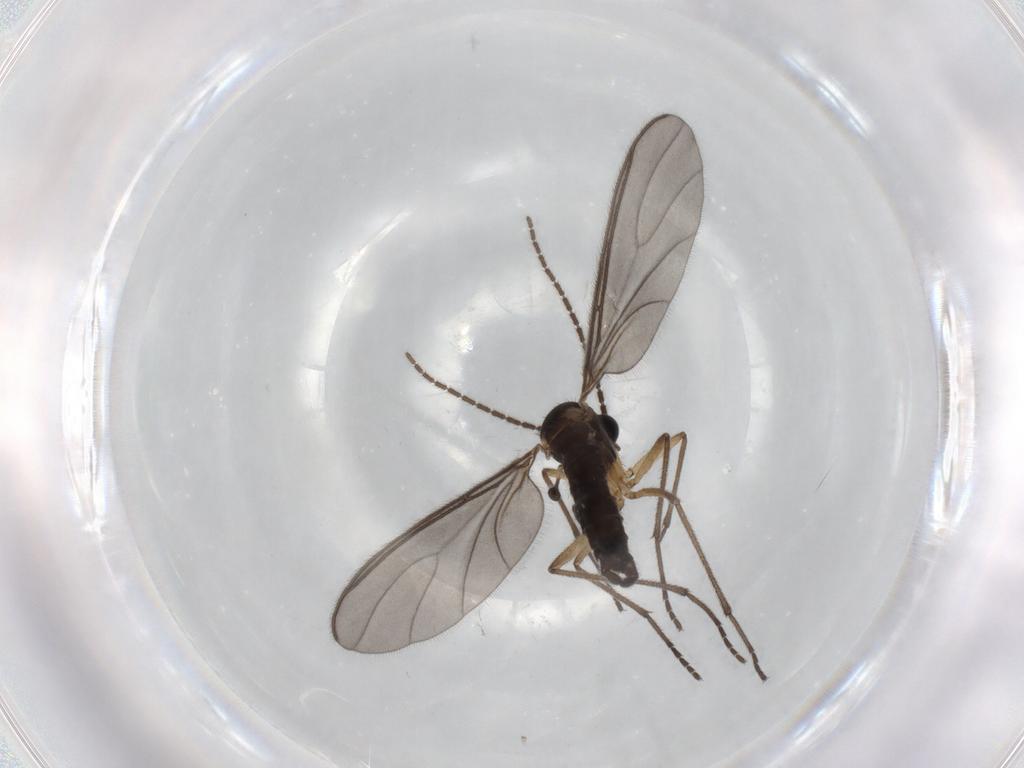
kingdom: Animalia
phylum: Arthropoda
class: Insecta
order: Diptera
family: Sciaridae
